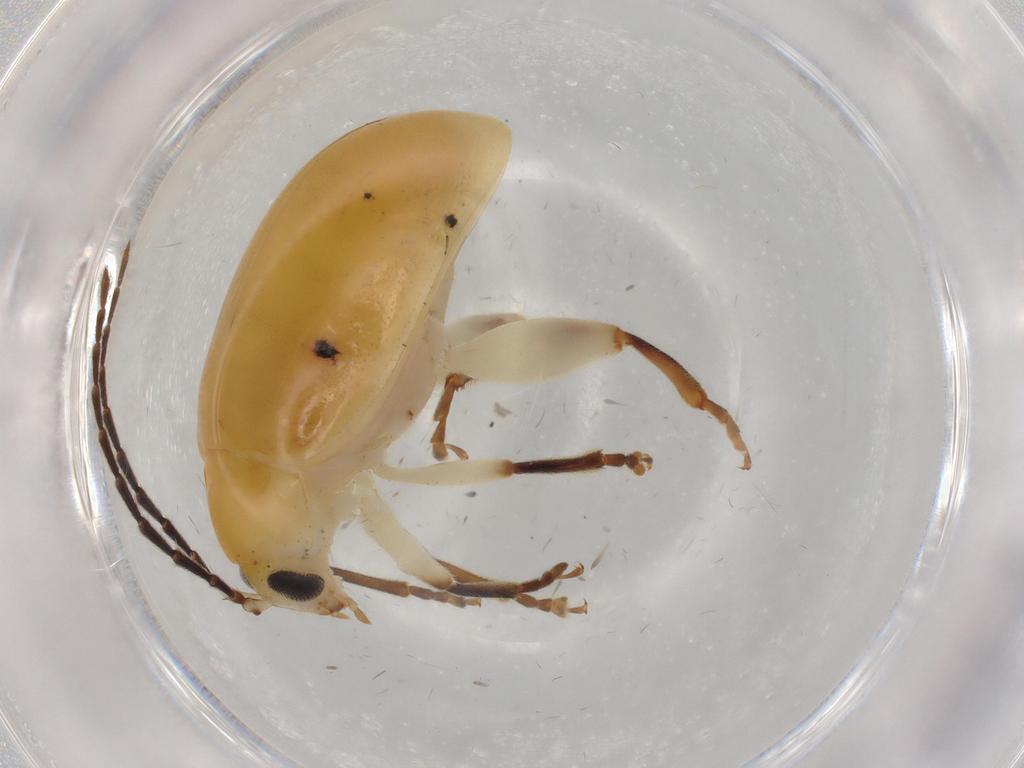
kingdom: Animalia
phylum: Arthropoda
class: Insecta
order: Coleoptera
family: Chrysomelidae
